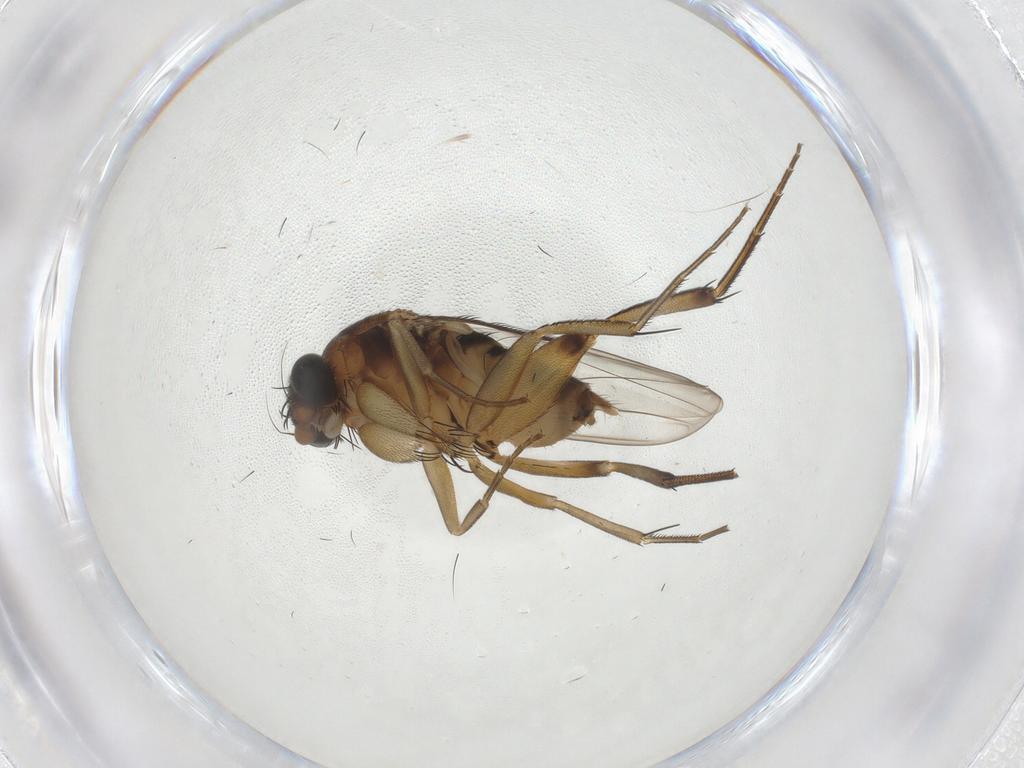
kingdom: Animalia
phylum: Arthropoda
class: Insecta
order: Diptera
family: Phoridae
